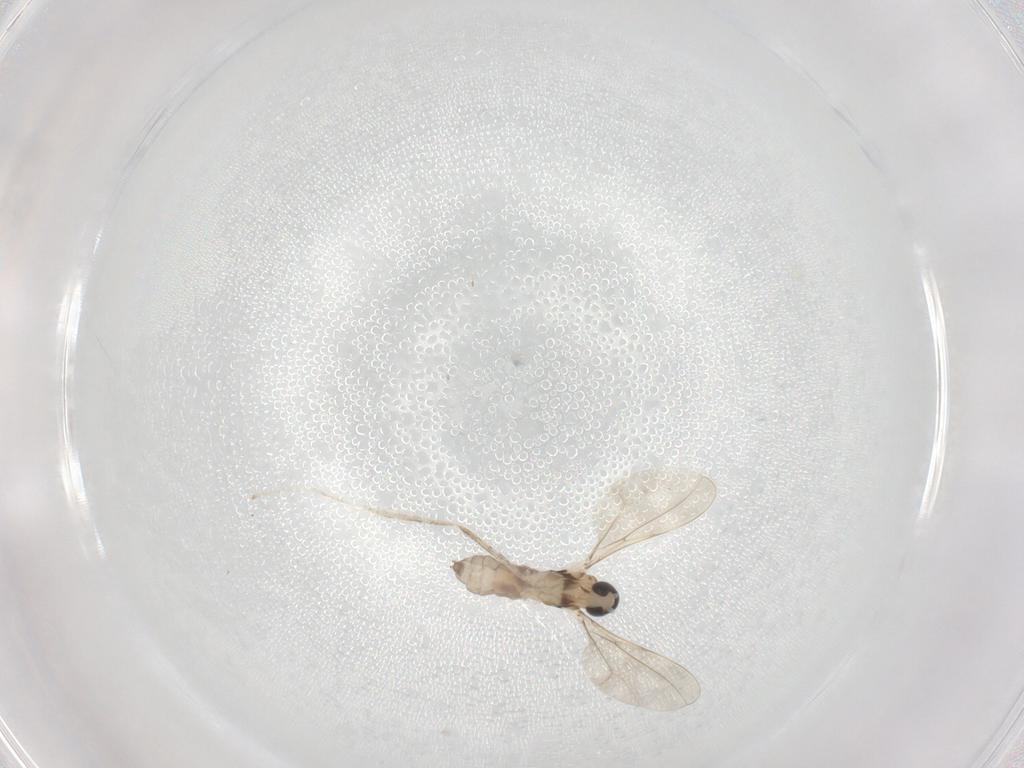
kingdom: Animalia
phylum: Arthropoda
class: Insecta
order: Diptera
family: Cecidomyiidae
